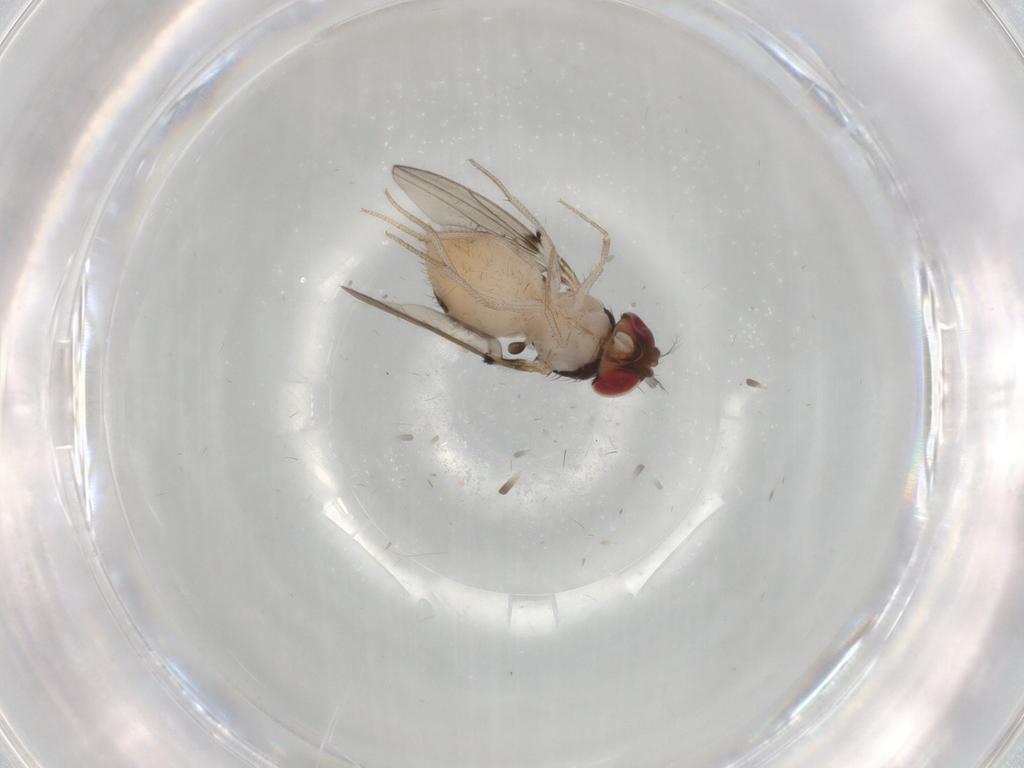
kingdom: Animalia
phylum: Arthropoda
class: Insecta
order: Diptera
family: Drosophilidae
